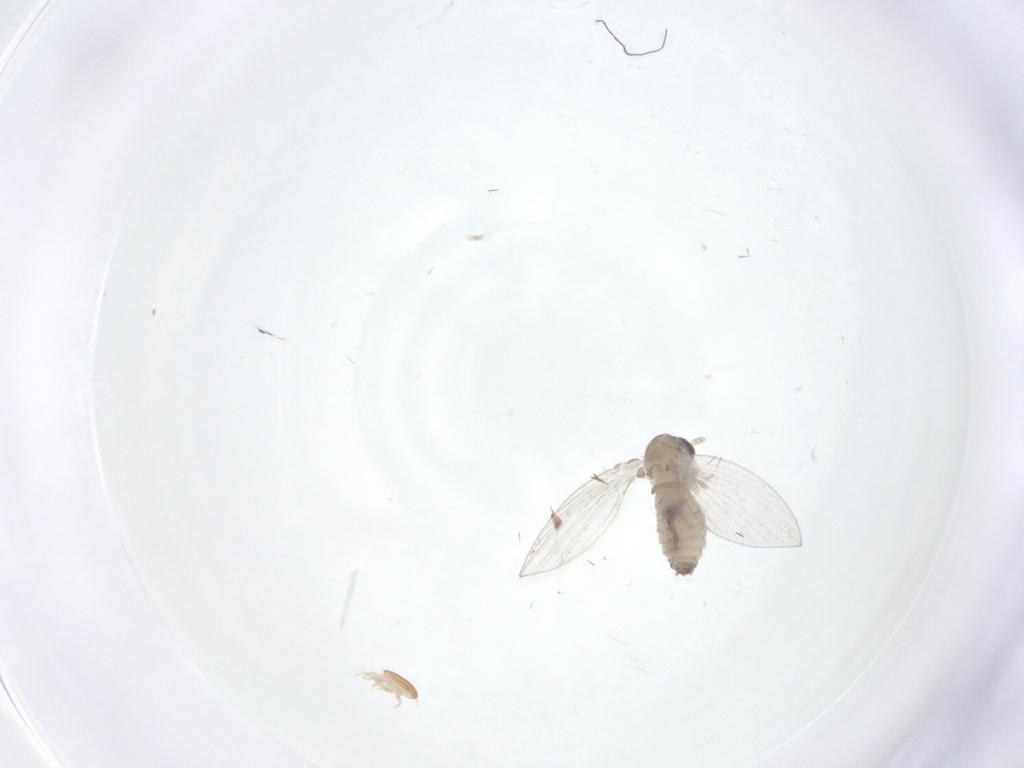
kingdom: Animalia
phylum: Arthropoda
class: Insecta
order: Diptera
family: Psychodidae
